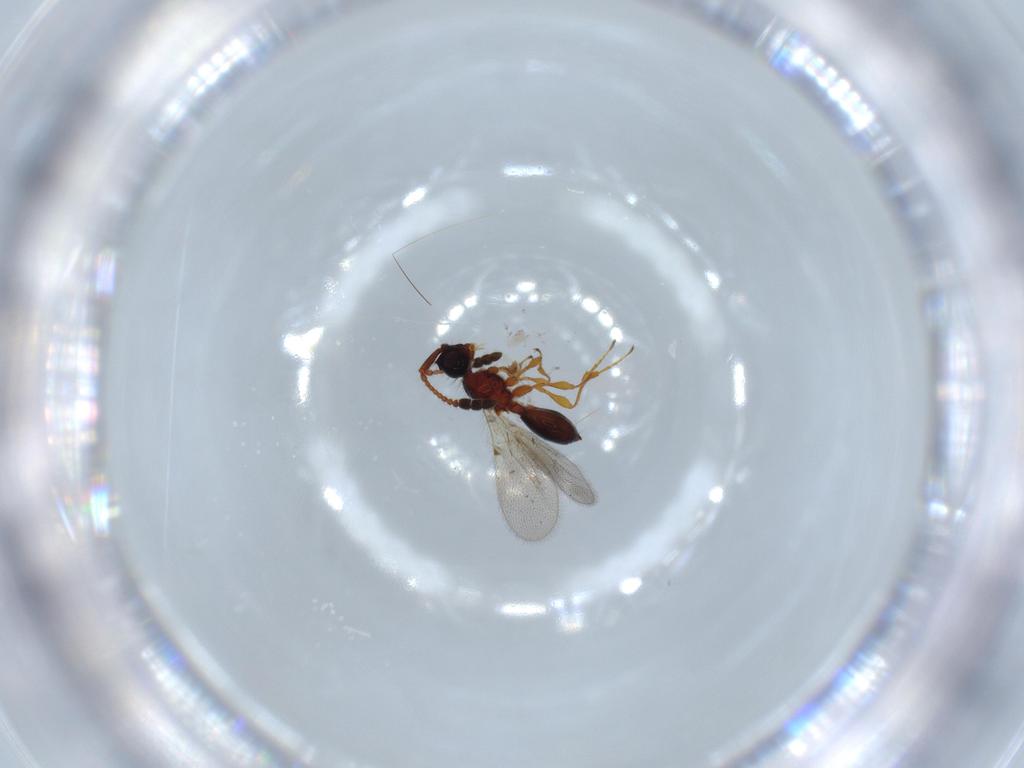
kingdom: Animalia
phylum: Arthropoda
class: Insecta
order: Hymenoptera
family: Diapriidae
